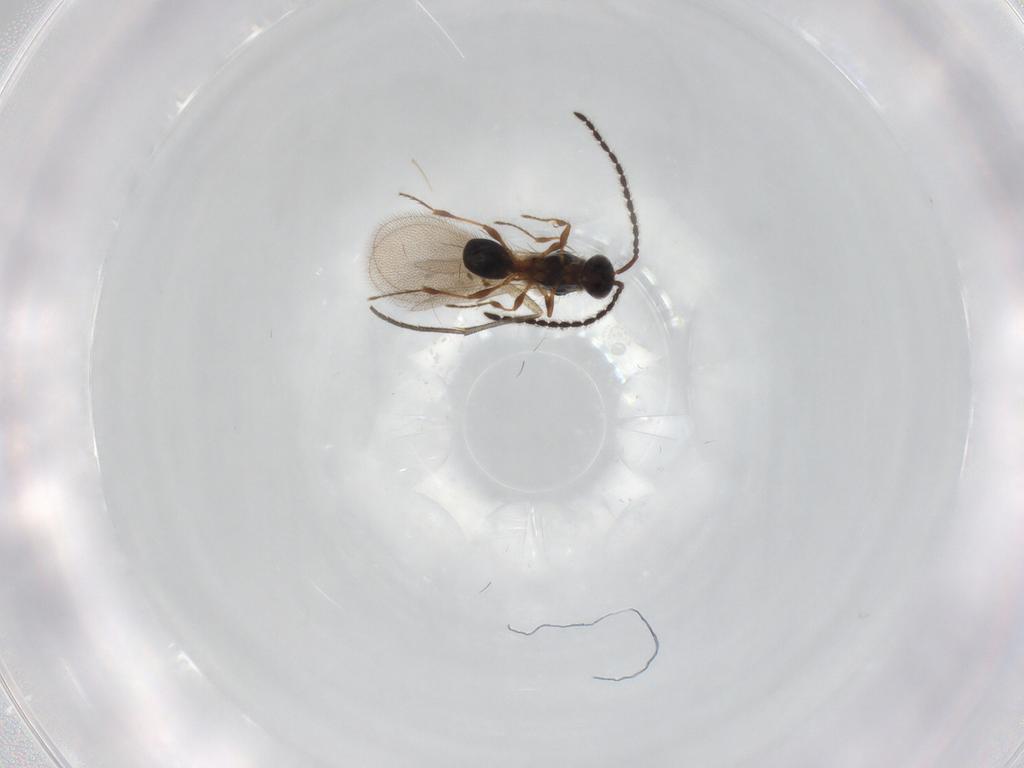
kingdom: Animalia
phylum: Arthropoda
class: Insecta
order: Hymenoptera
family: Diapriidae
